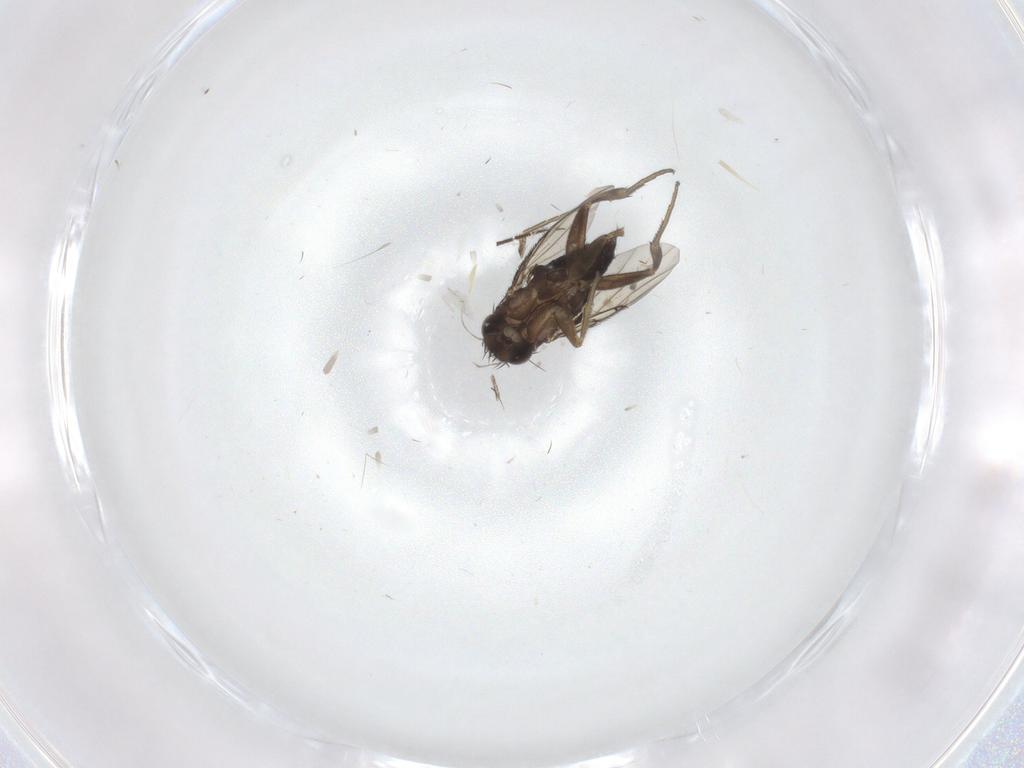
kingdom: Animalia
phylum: Arthropoda
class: Insecta
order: Diptera
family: Phoridae
